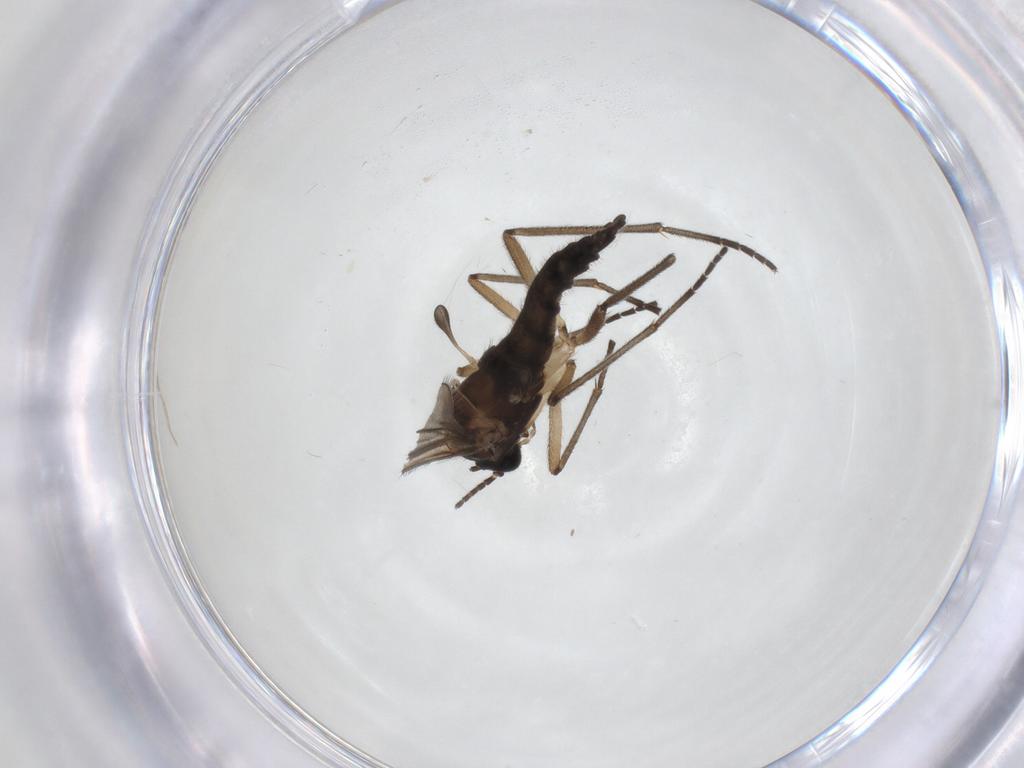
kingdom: Animalia
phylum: Arthropoda
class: Insecta
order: Diptera
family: Sciaridae
